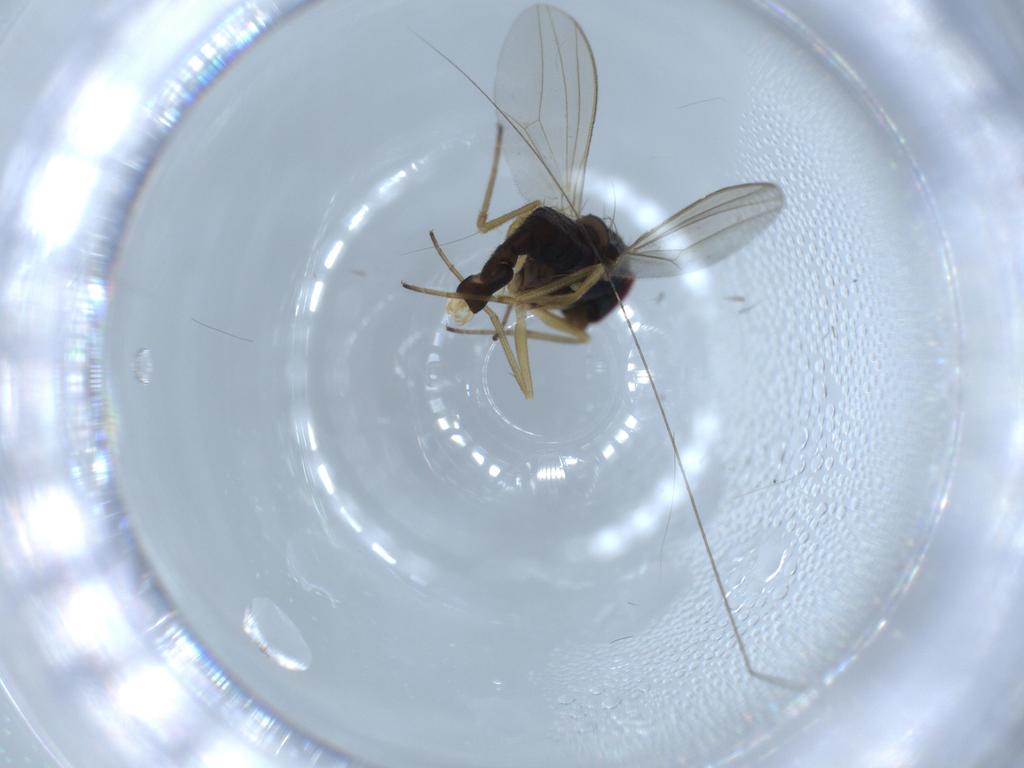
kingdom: Animalia
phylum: Arthropoda
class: Insecta
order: Diptera
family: Dolichopodidae
